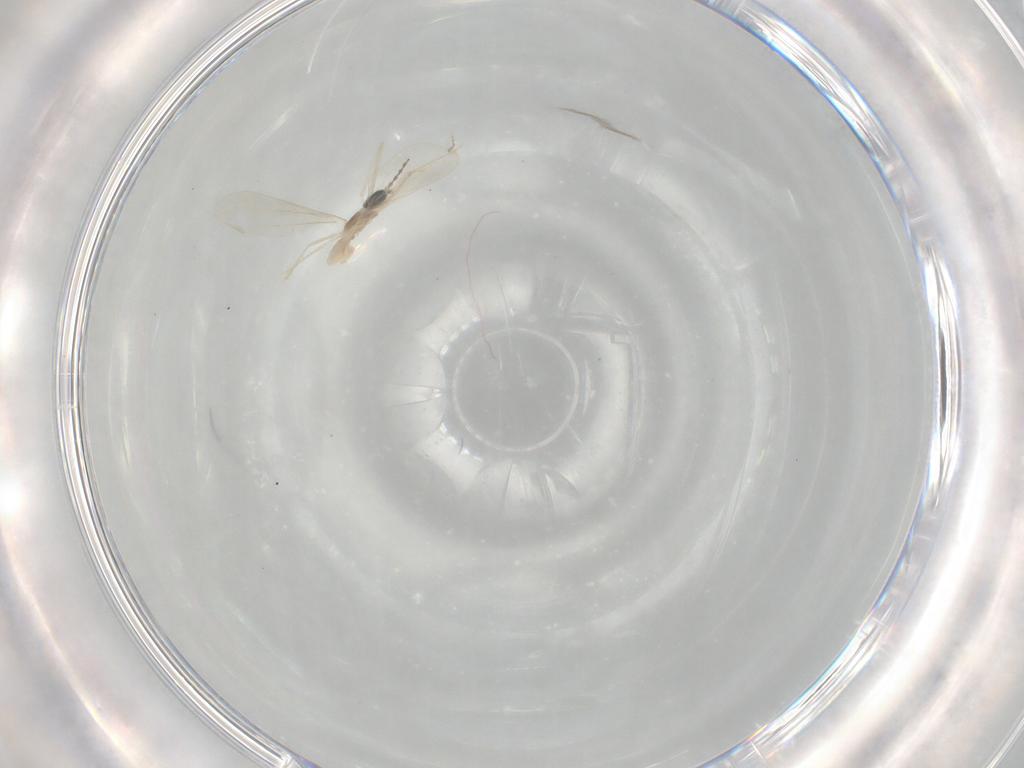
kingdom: Animalia
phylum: Arthropoda
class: Insecta
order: Diptera
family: Cecidomyiidae
